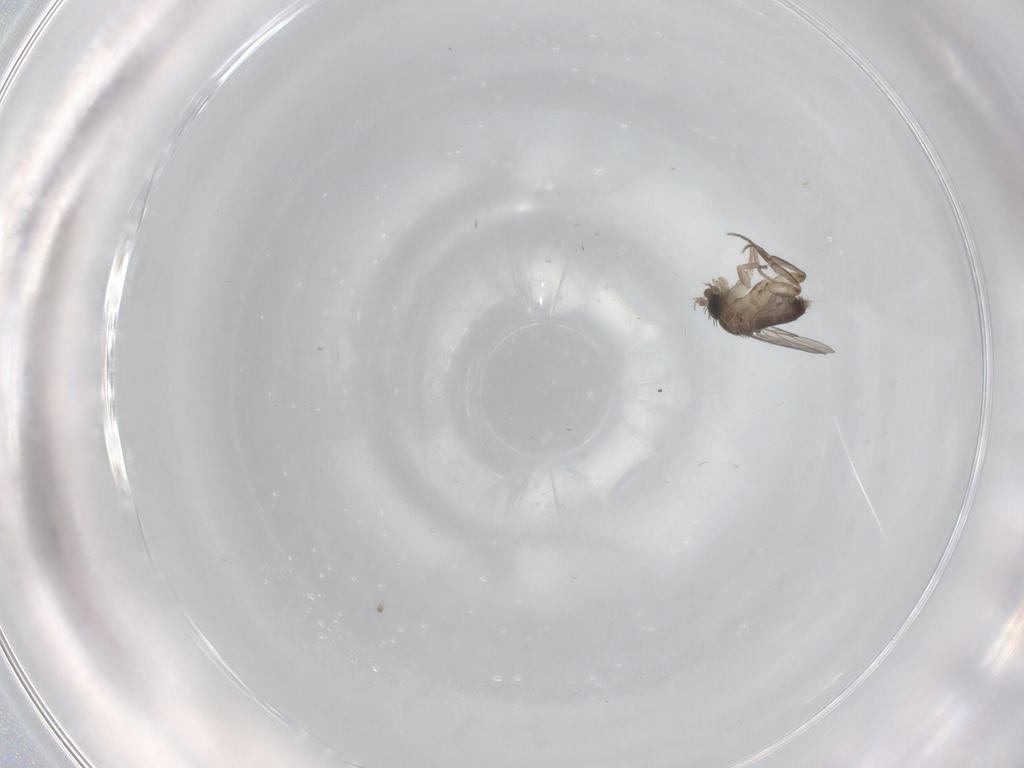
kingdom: Animalia
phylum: Arthropoda
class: Insecta
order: Diptera
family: Phoridae
